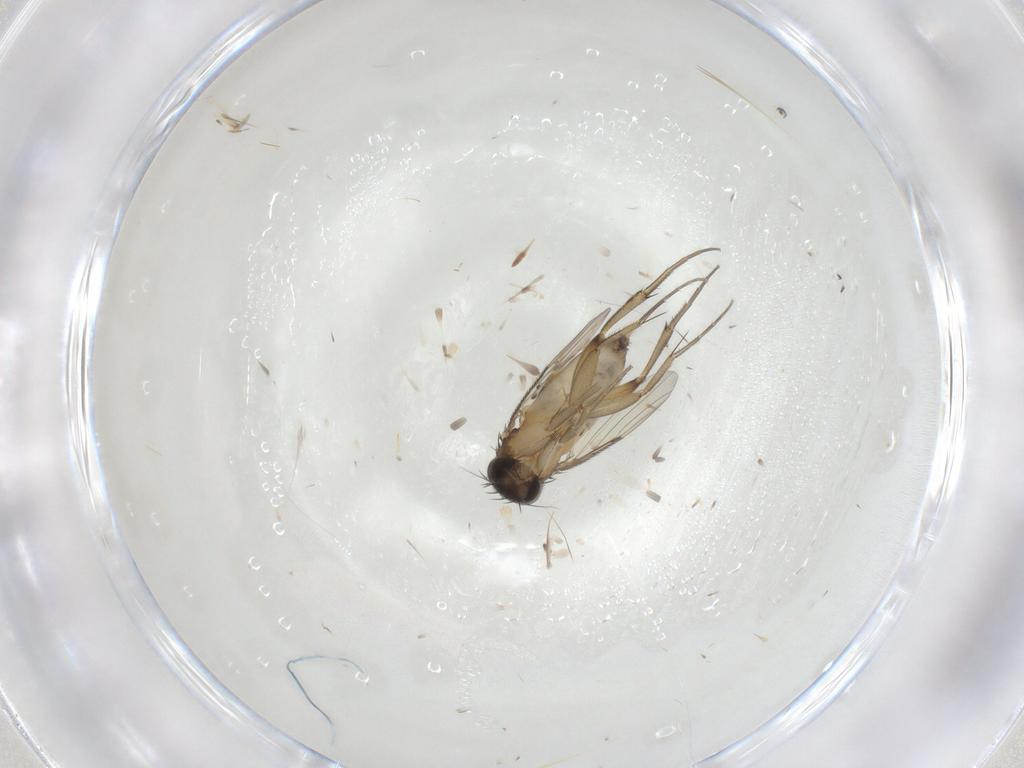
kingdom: Animalia
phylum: Arthropoda
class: Insecta
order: Diptera
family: Phoridae
